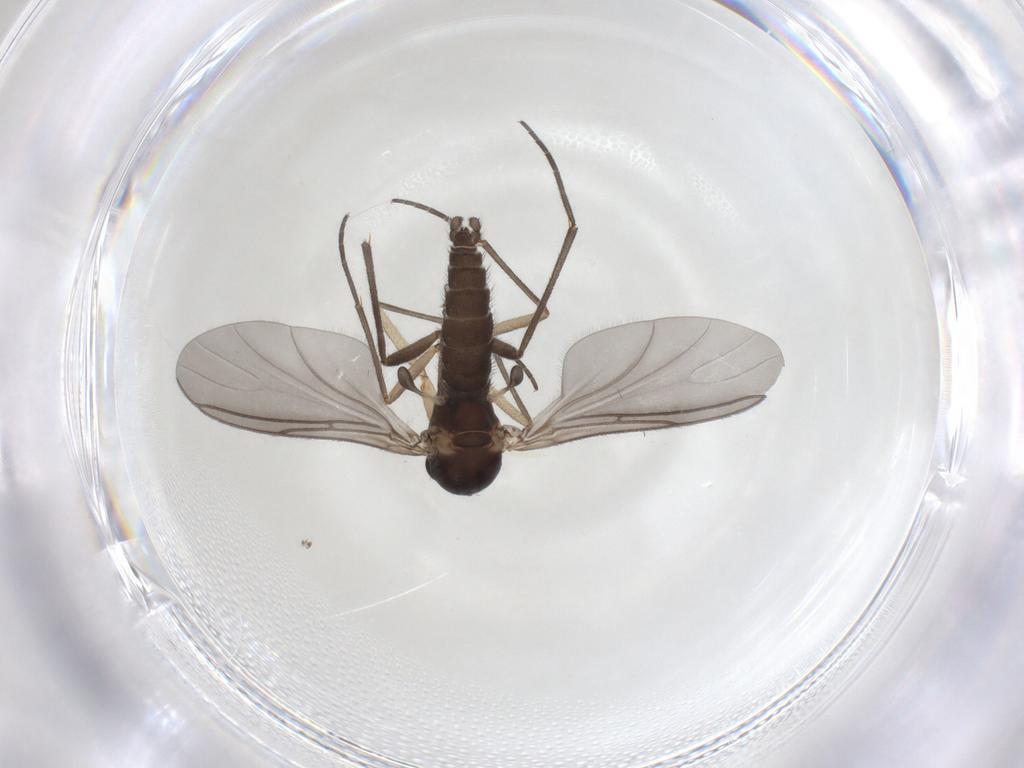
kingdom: Animalia
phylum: Arthropoda
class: Insecta
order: Diptera
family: Sciaridae
